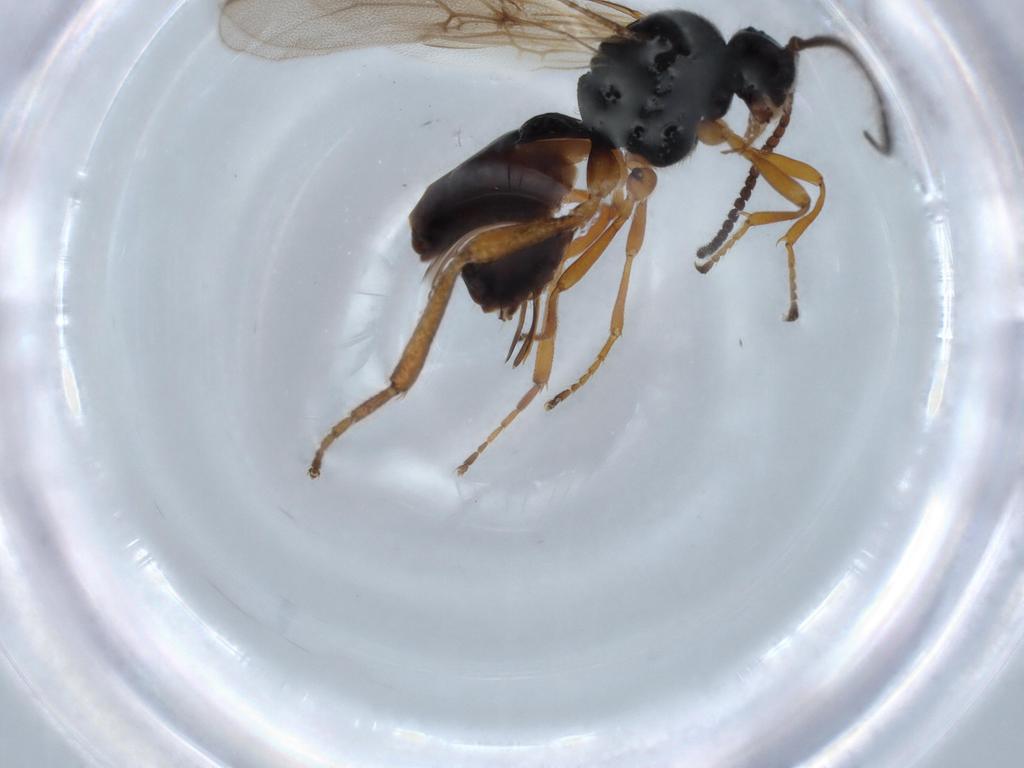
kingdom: Animalia
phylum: Arthropoda
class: Insecta
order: Hymenoptera
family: Braconidae
